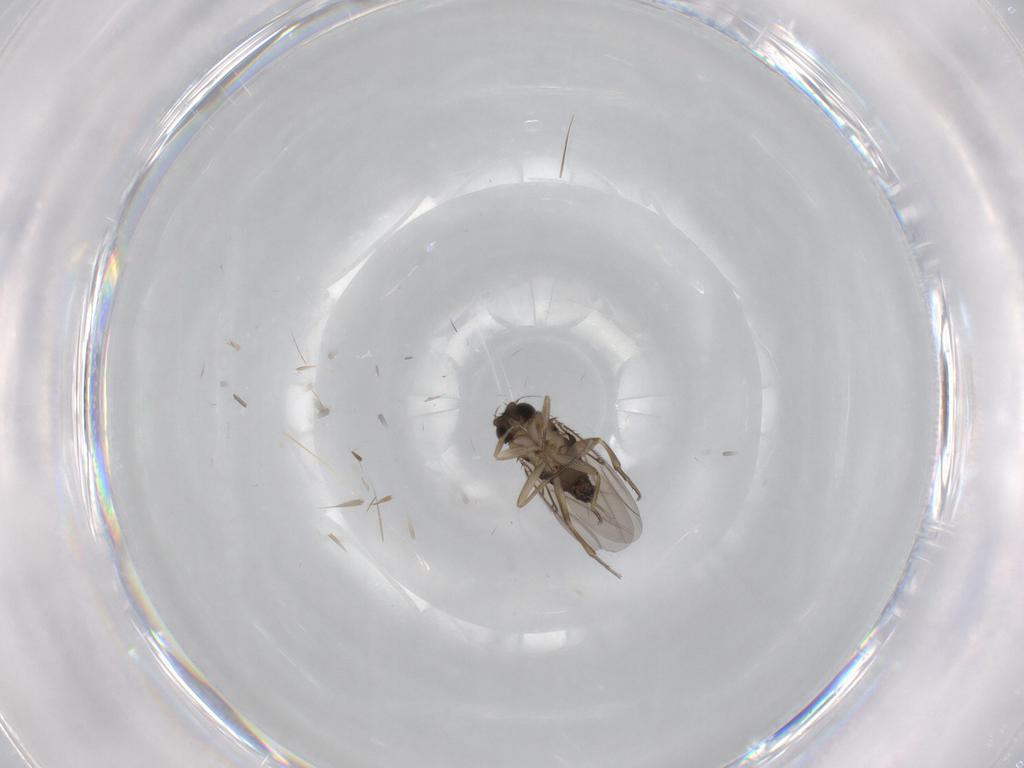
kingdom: Animalia
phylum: Arthropoda
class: Insecta
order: Diptera
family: Phoridae
